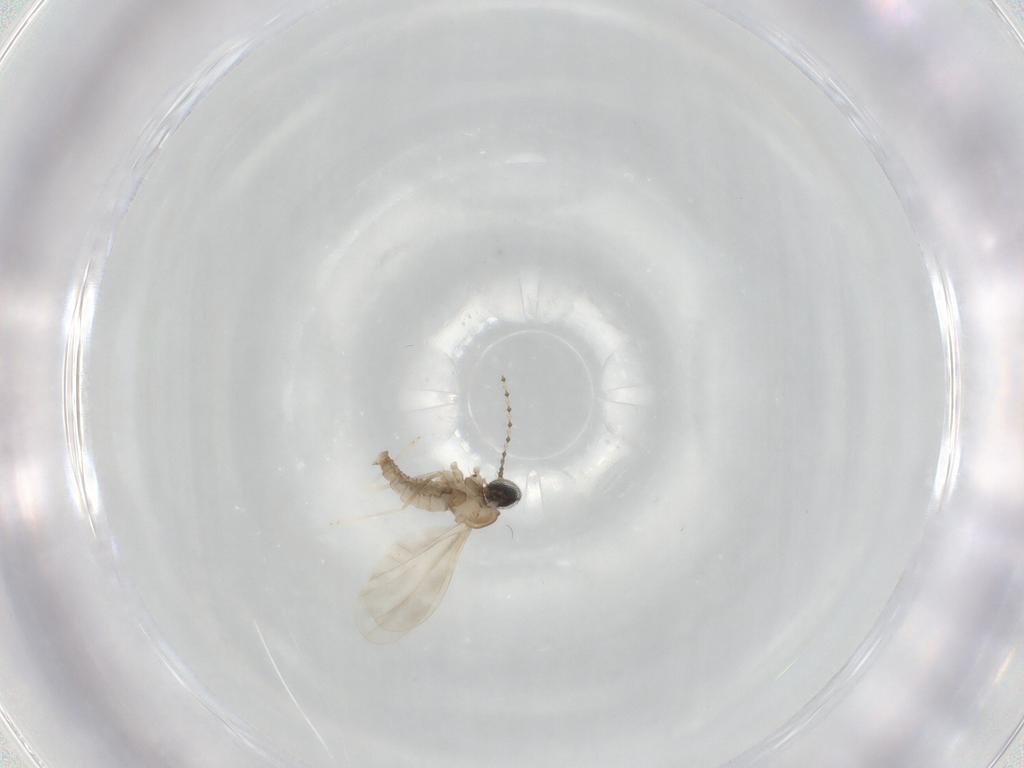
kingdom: Animalia
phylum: Arthropoda
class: Insecta
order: Diptera
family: Cecidomyiidae
